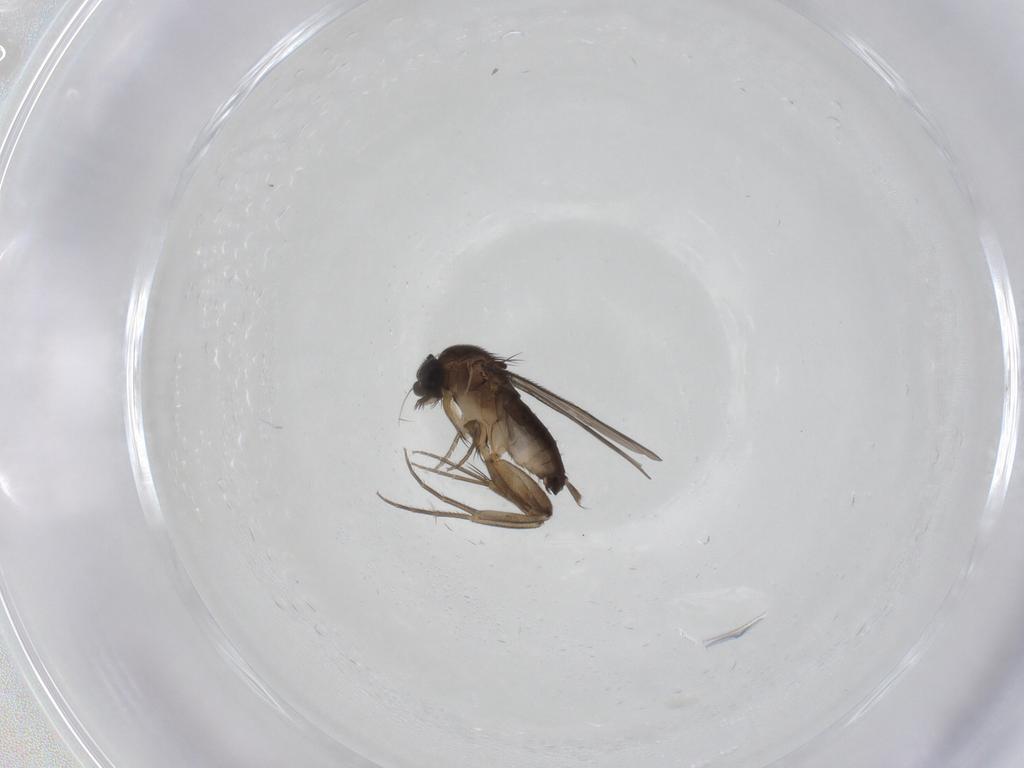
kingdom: Animalia
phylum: Arthropoda
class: Insecta
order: Diptera
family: Phoridae
